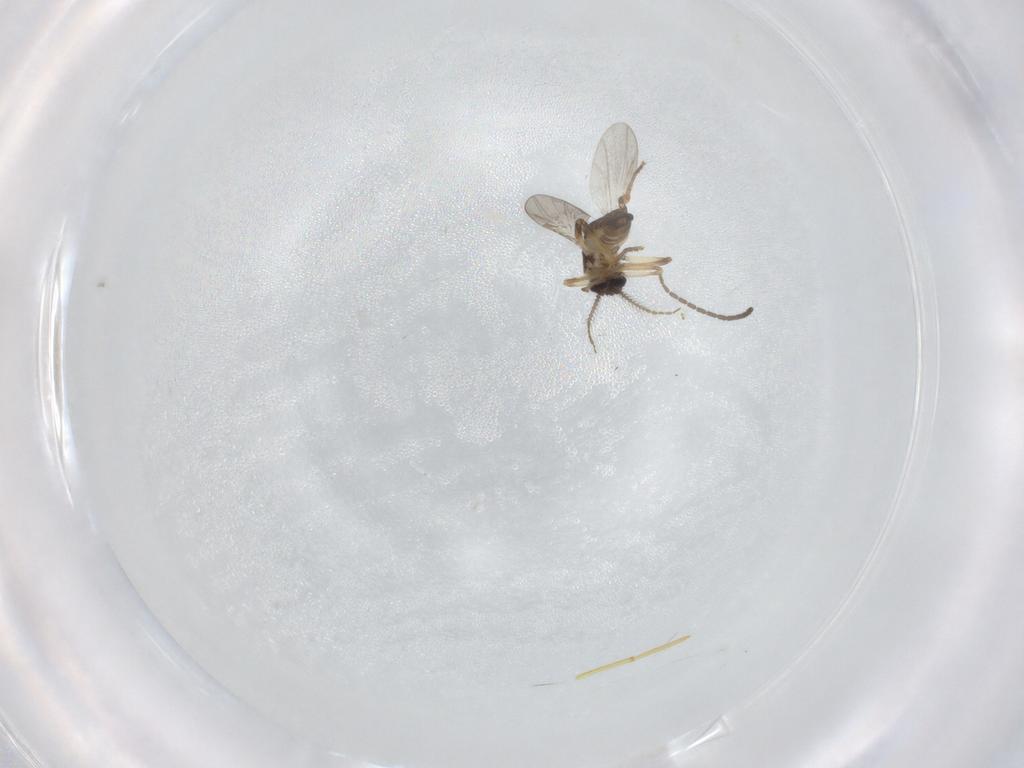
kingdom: Animalia
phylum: Arthropoda
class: Insecta
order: Diptera
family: Ceratopogonidae
